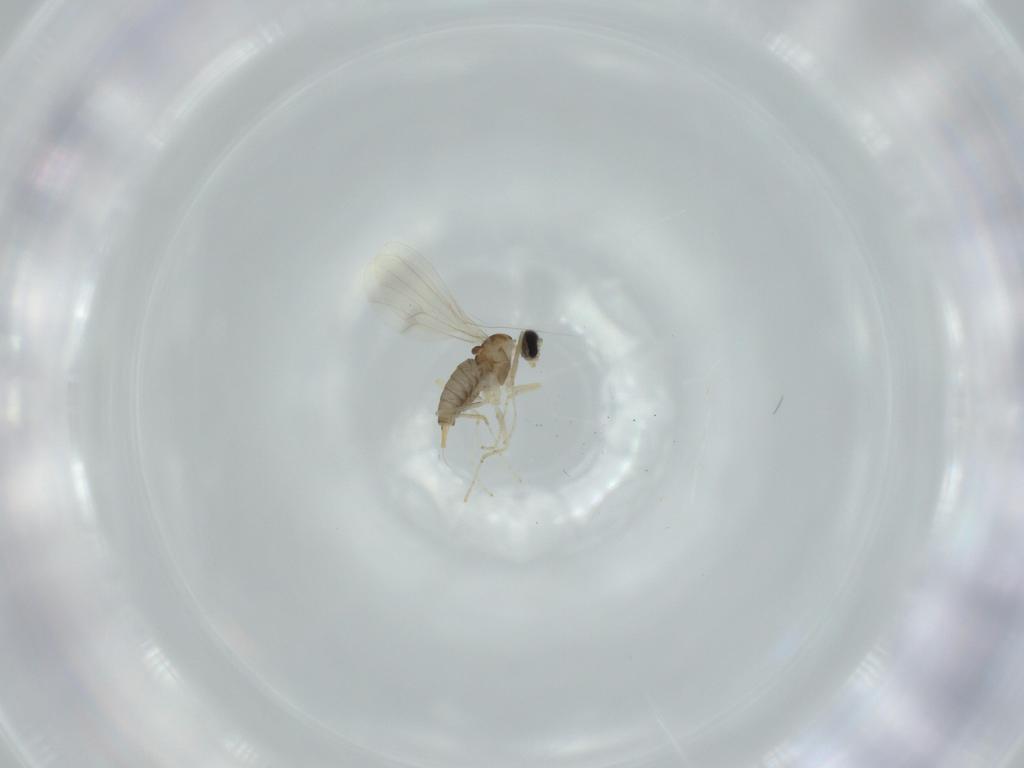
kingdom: Animalia
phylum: Arthropoda
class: Insecta
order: Diptera
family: Cecidomyiidae
